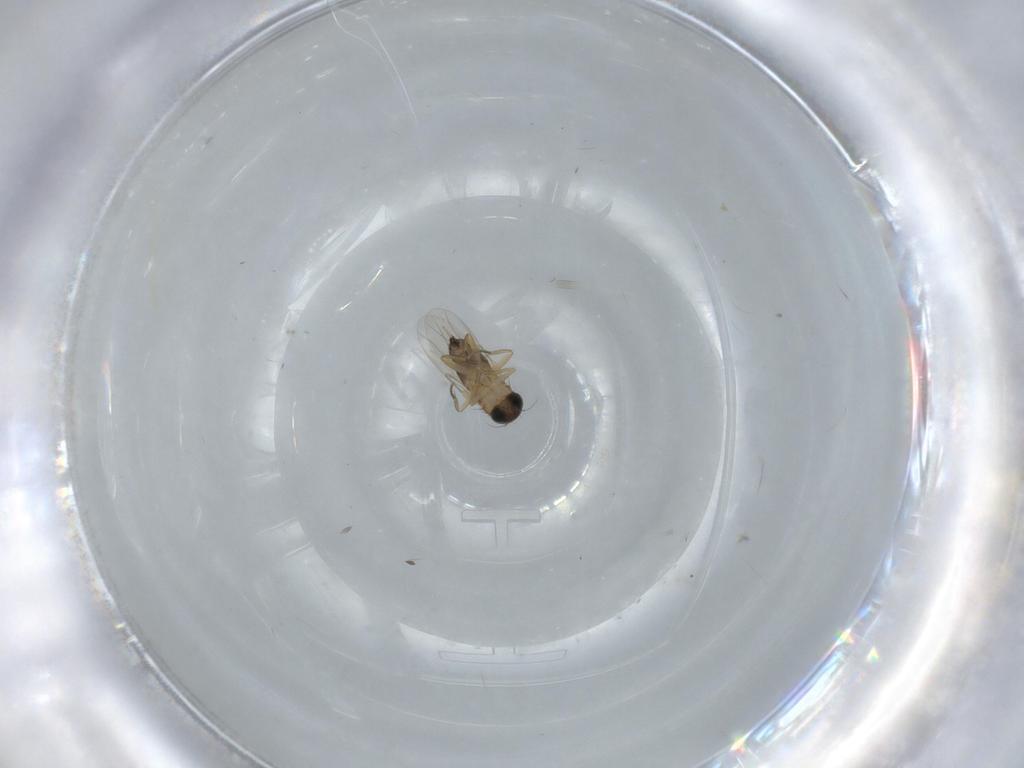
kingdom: Animalia
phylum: Arthropoda
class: Insecta
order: Diptera
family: Phoridae
